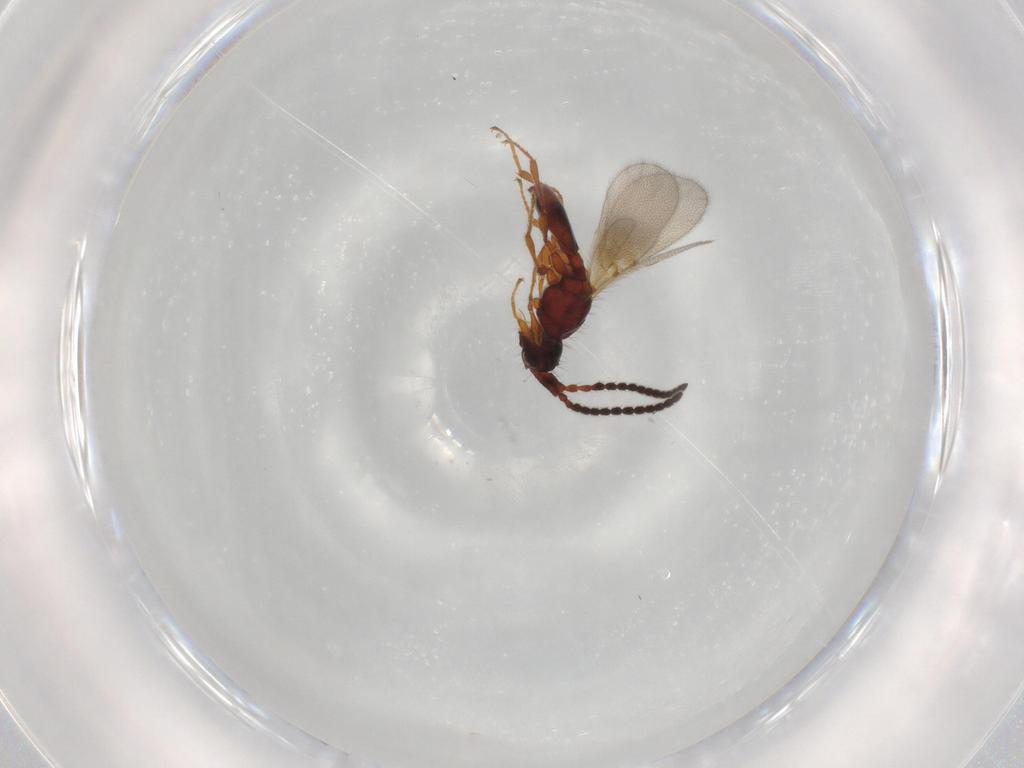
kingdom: Animalia
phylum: Arthropoda
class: Insecta
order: Hymenoptera
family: Diapriidae
